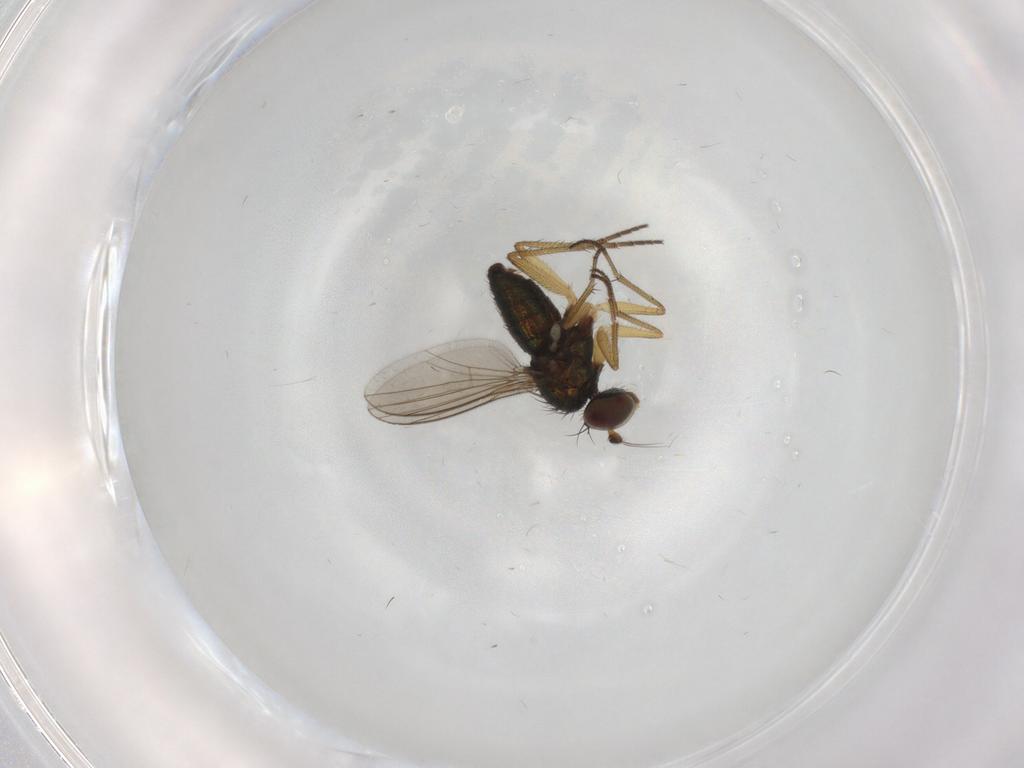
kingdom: Animalia
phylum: Arthropoda
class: Insecta
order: Diptera
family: Dolichopodidae
